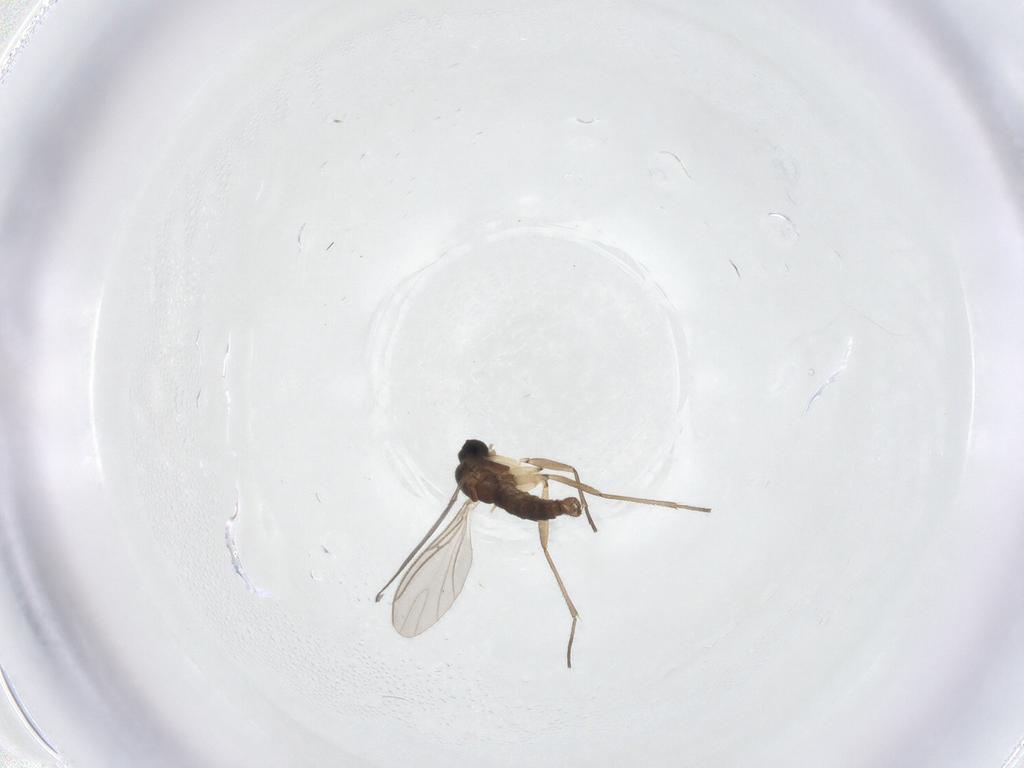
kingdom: Animalia
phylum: Arthropoda
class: Insecta
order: Diptera
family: Sciaridae
